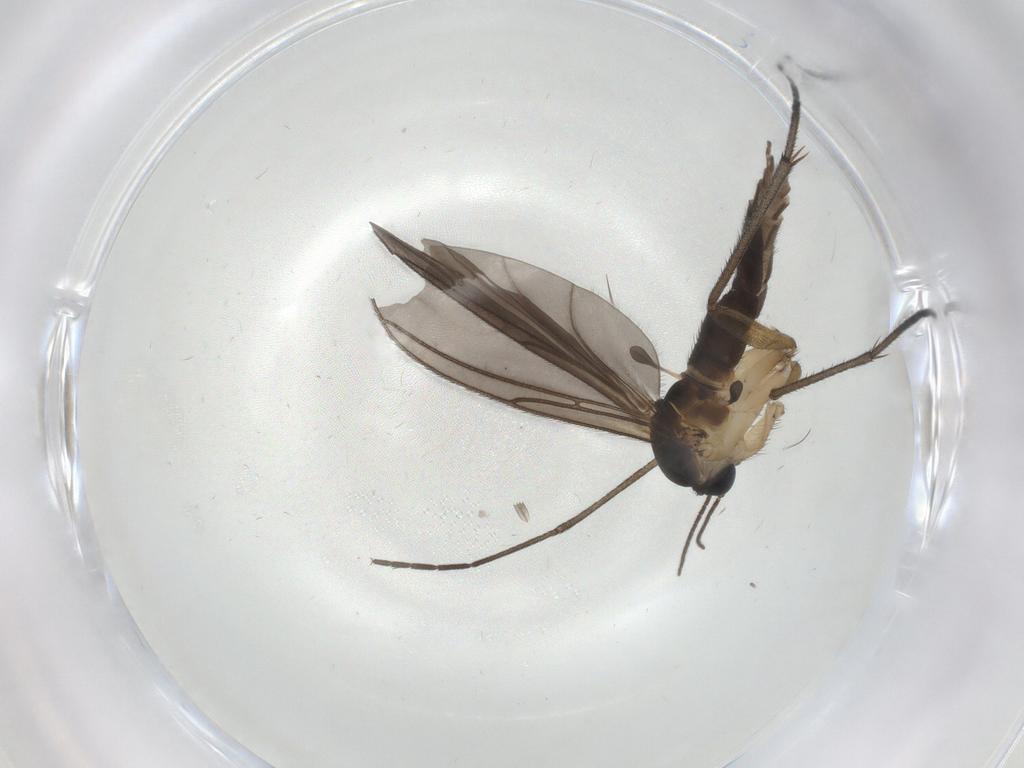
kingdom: Animalia
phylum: Arthropoda
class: Insecta
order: Diptera
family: Sciaridae
